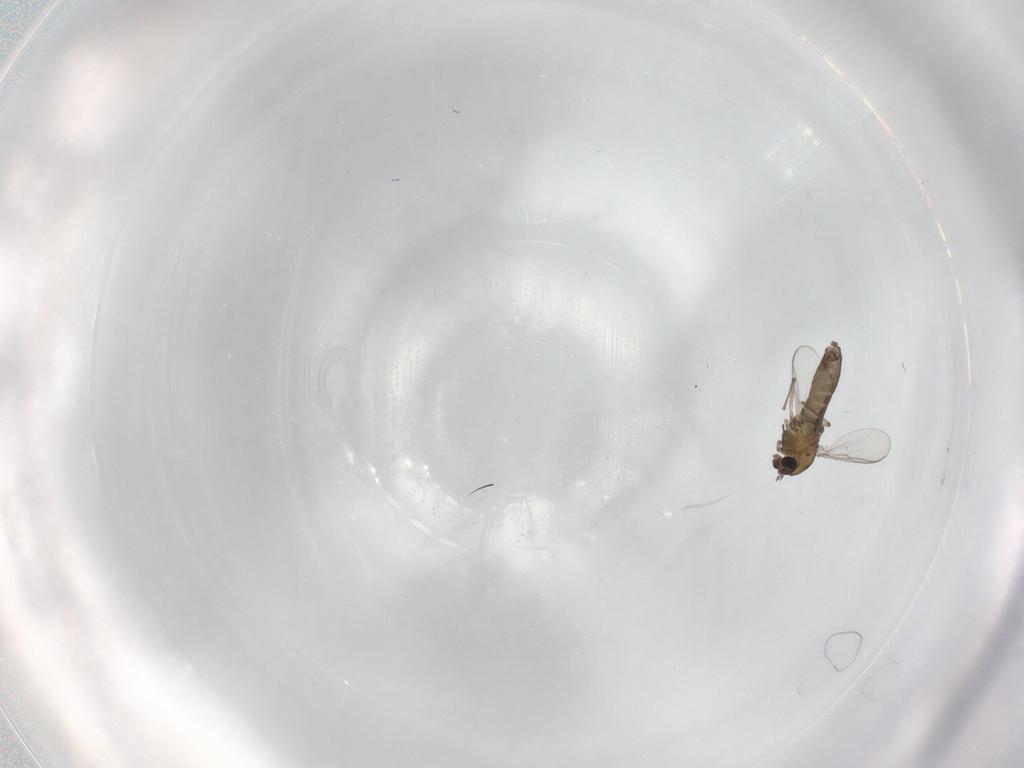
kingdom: Animalia
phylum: Arthropoda
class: Insecta
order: Diptera
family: Chironomidae
